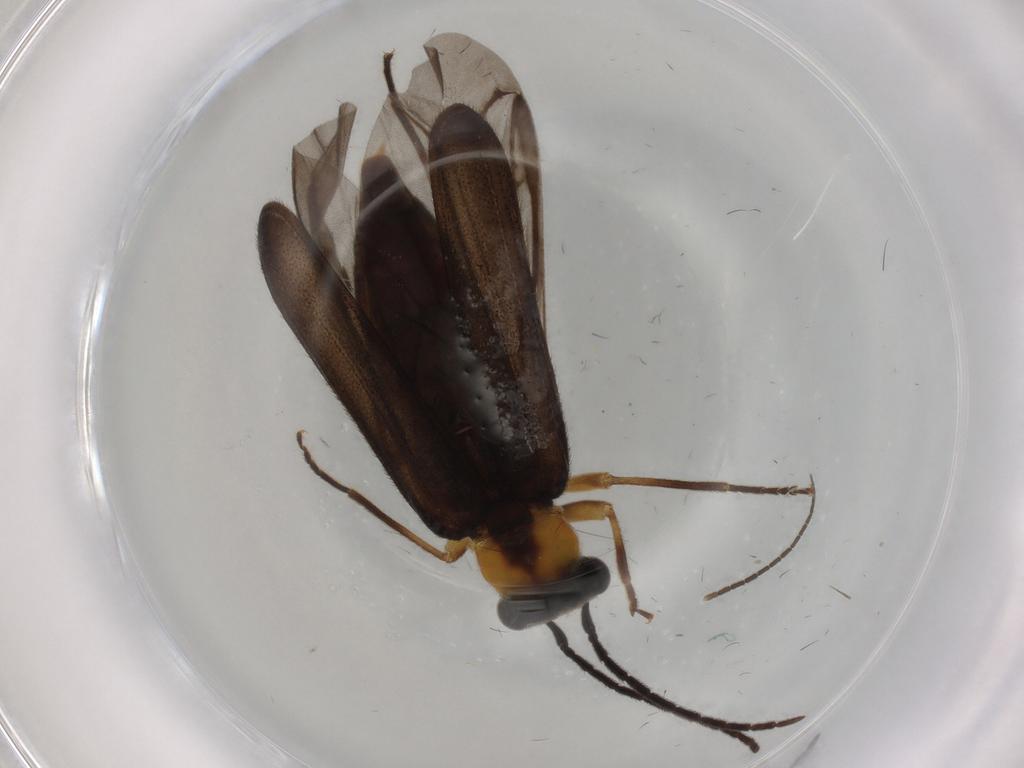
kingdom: Animalia
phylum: Arthropoda
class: Insecta
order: Coleoptera
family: Oedemeridae
